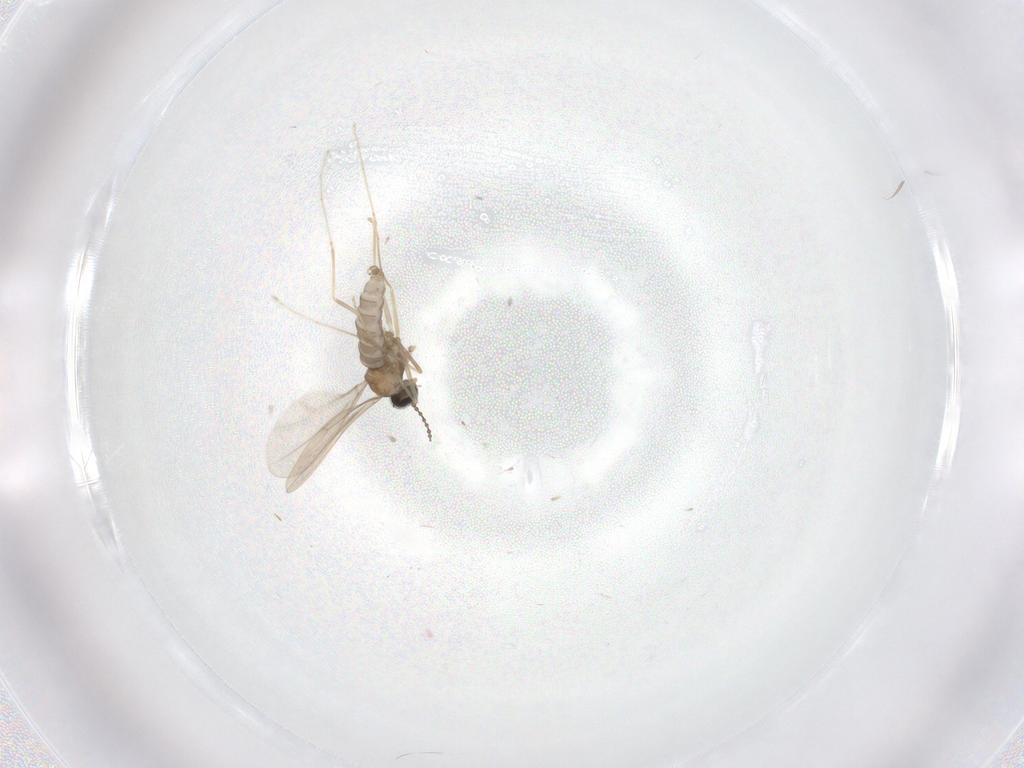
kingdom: Animalia
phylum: Arthropoda
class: Insecta
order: Diptera
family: Cecidomyiidae
